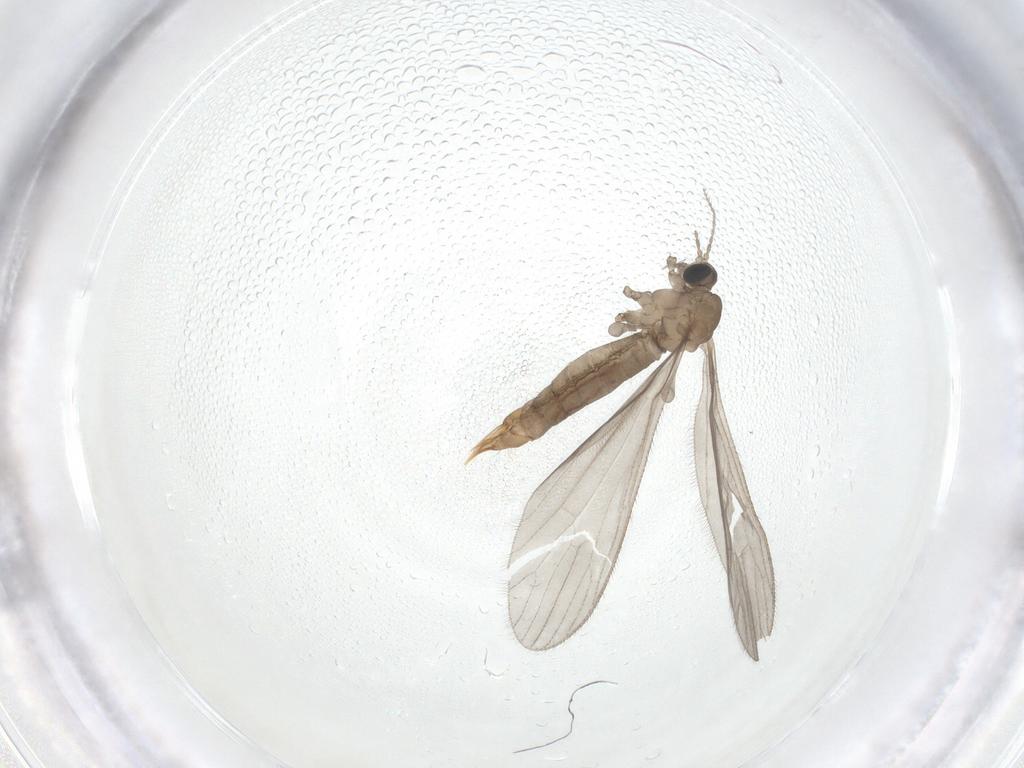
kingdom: Animalia
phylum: Arthropoda
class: Insecta
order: Diptera
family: Limoniidae
